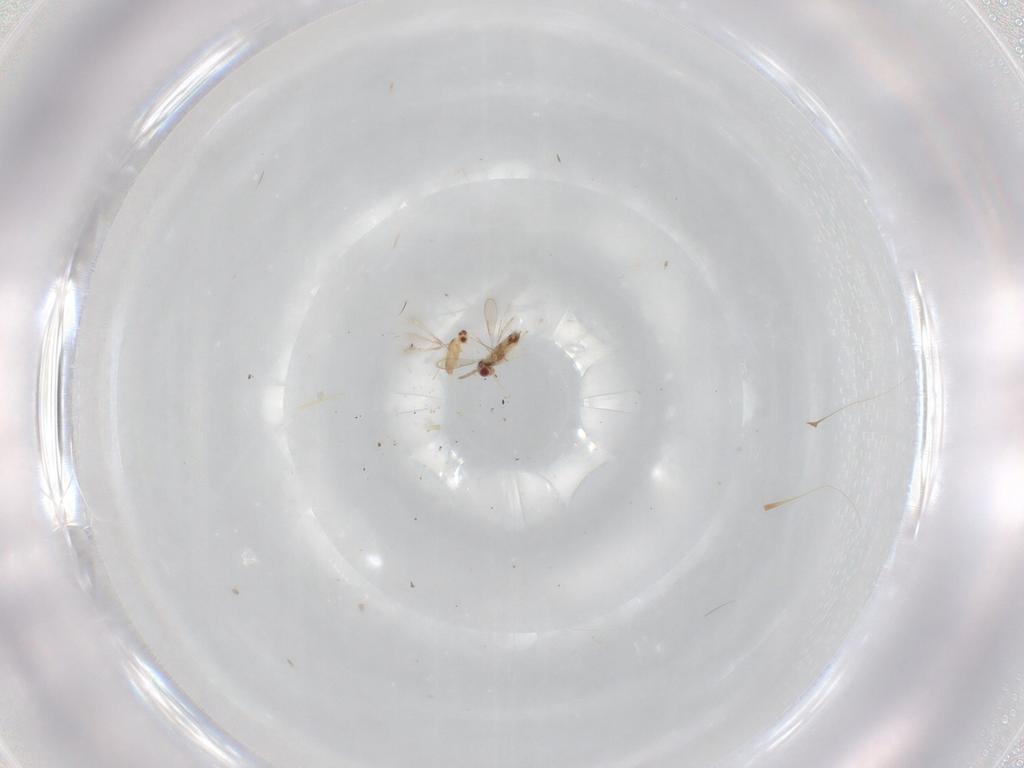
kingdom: Animalia
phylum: Arthropoda
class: Insecta
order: Hymenoptera
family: Aphelinidae
